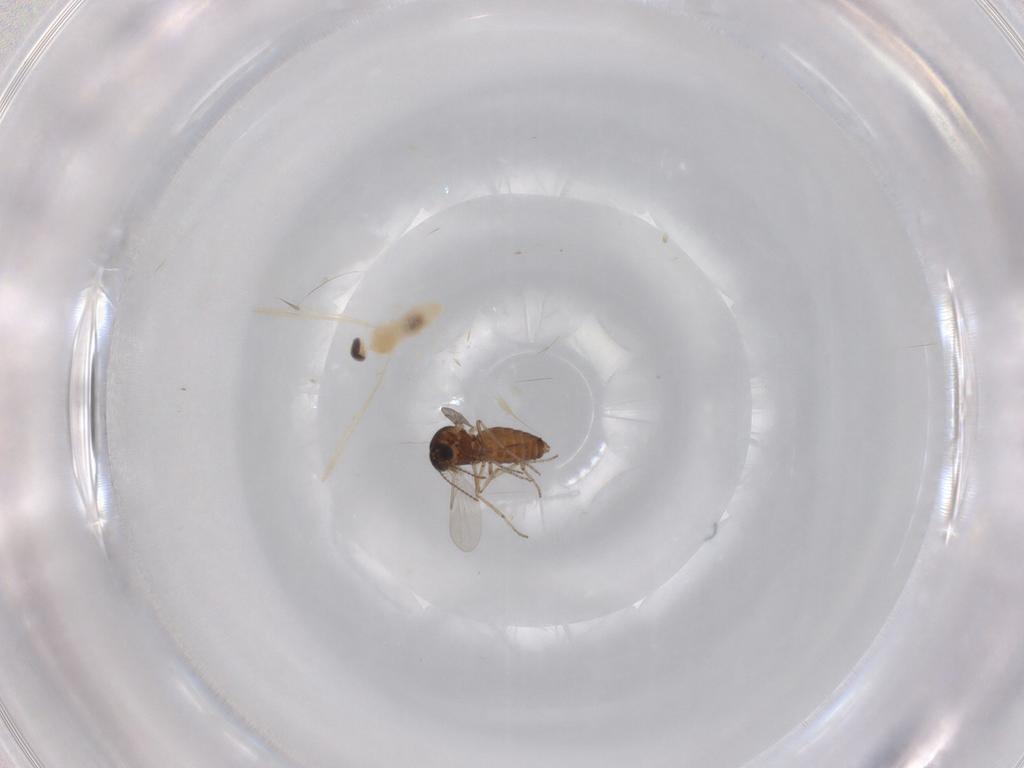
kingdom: Animalia
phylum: Arthropoda
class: Insecta
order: Diptera
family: Ceratopogonidae
